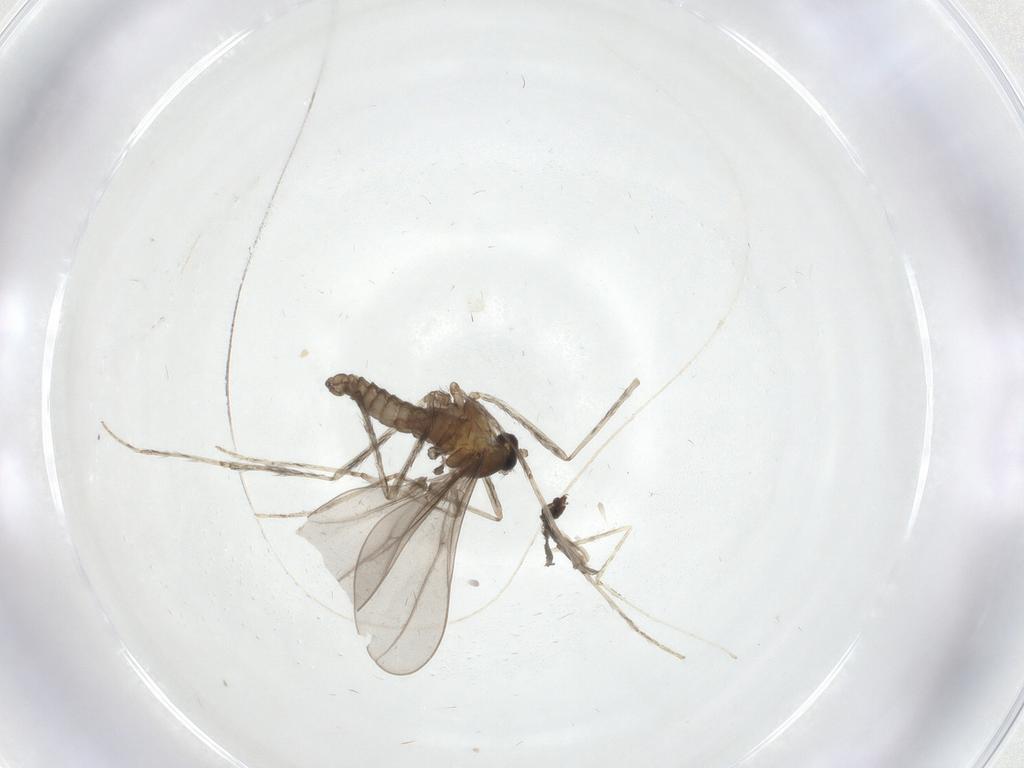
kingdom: Animalia
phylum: Arthropoda
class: Insecta
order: Diptera
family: Cecidomyiidae
